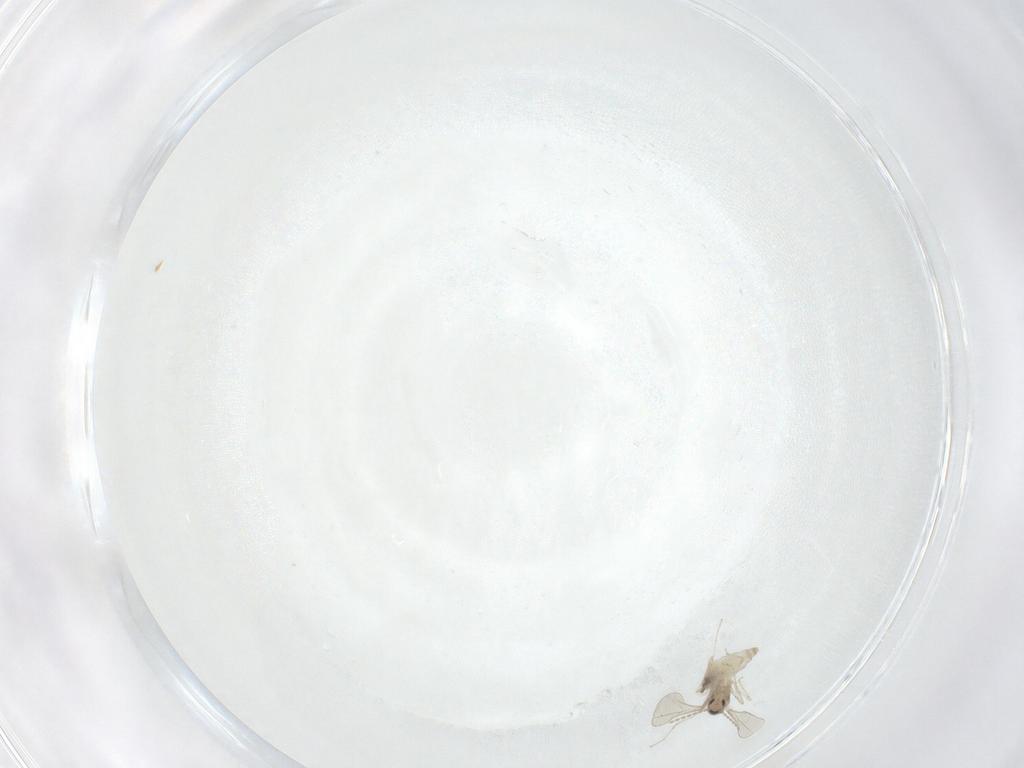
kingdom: Animalia
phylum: Arthropoda
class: Insecta
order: Diptera
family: Cecidomyiidae
